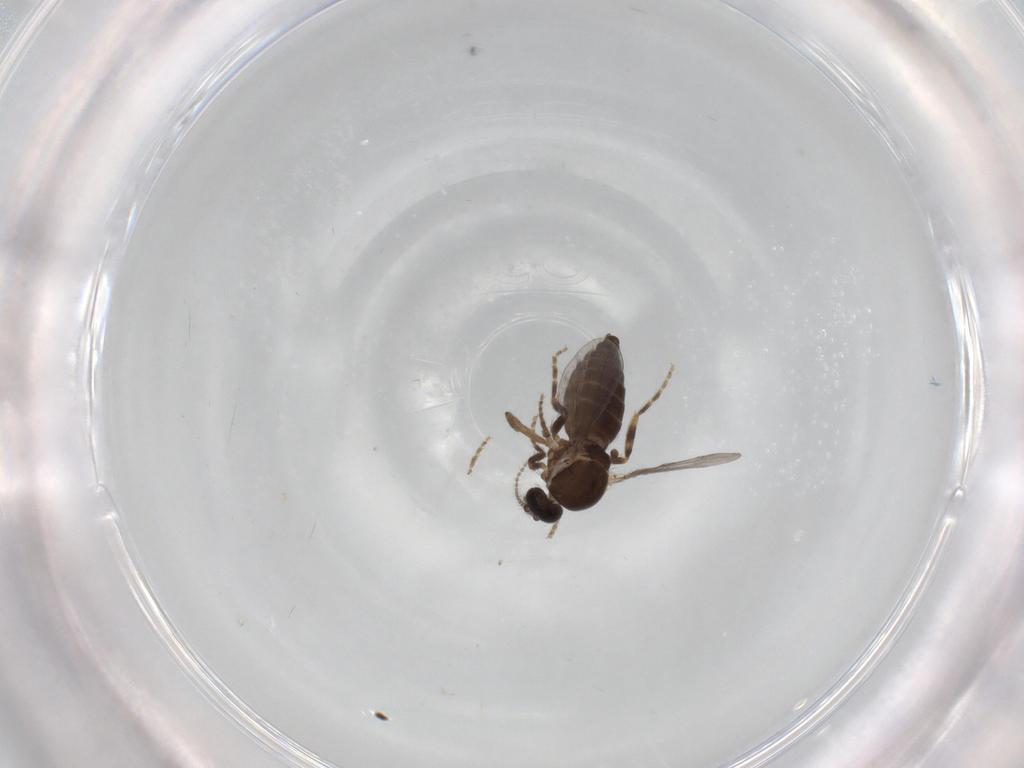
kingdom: Animalia
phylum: Arthropoda
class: Insecta
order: Diptera
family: Ceratopogonidae
